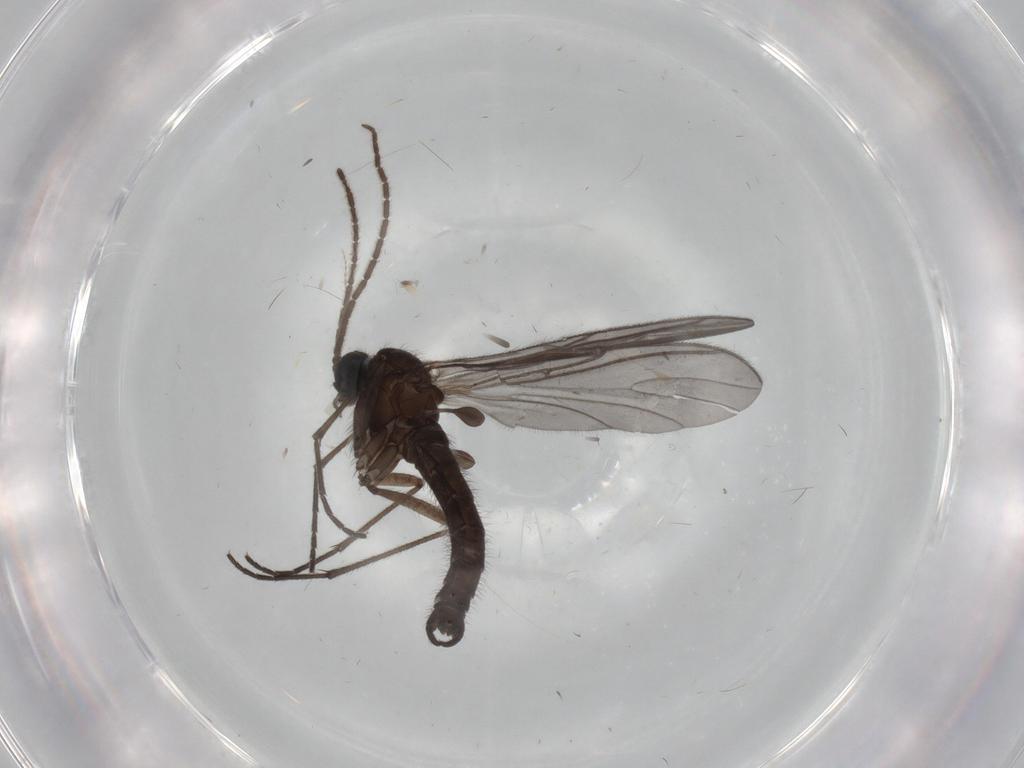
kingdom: Animalia
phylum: Arthropoda
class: Insecta
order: Diptera
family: Sciaridae
